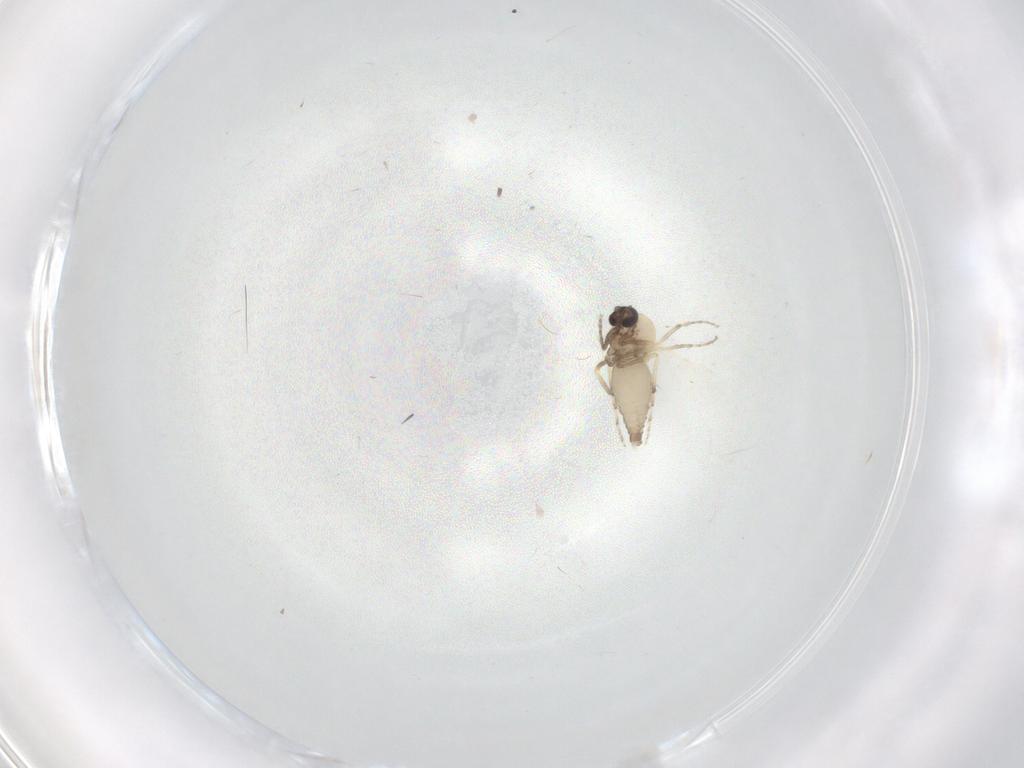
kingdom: Animalia
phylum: Arthropoda
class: Insecta
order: Diptera
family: Ceratopogonidae
